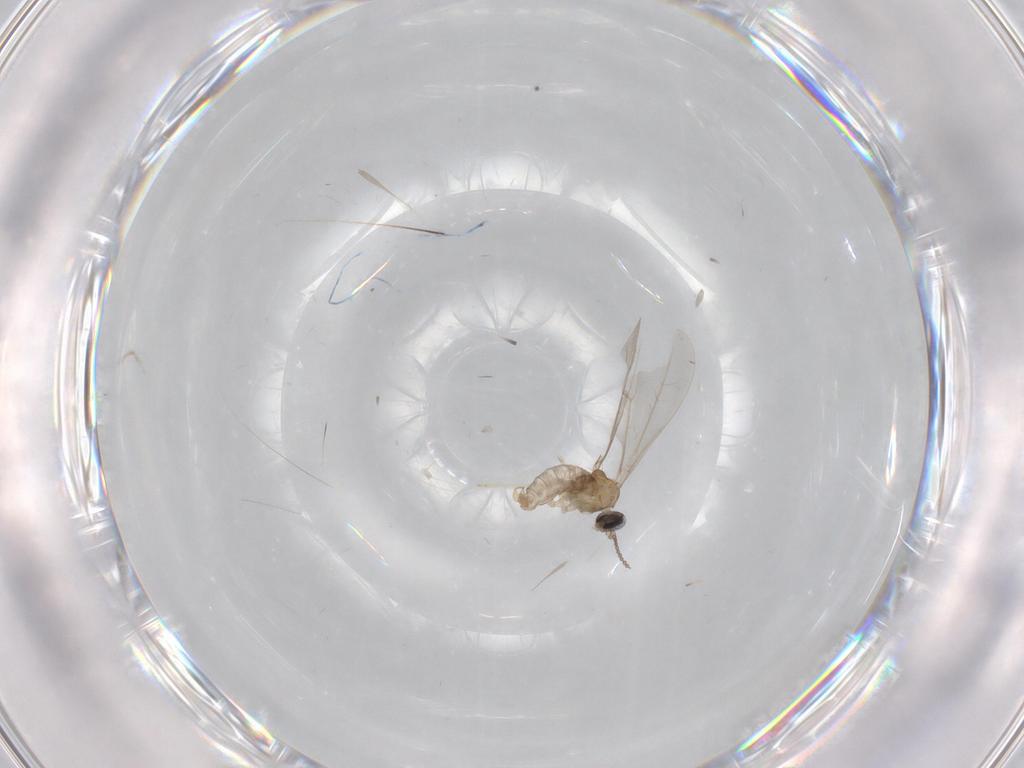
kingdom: Animalia
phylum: Arthropoda
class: Insecta
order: Diptera
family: Cecidomyiidae
